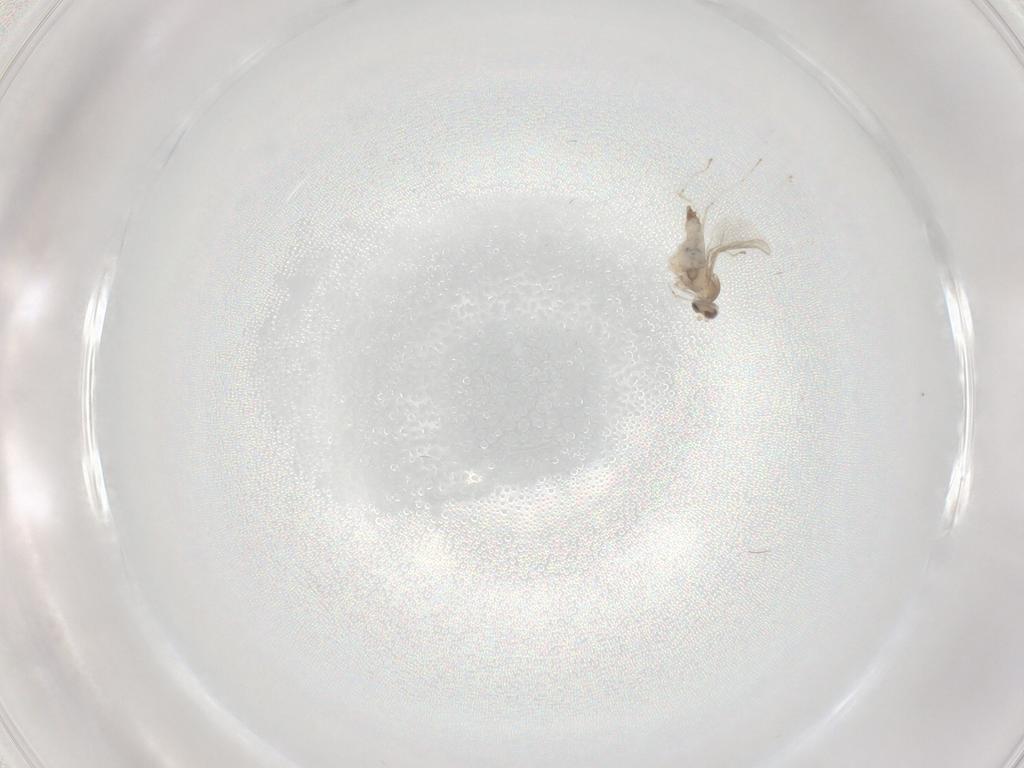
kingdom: Animalia
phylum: Arthropoda
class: Insecta
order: Diptera
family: Cecidomyiidae
